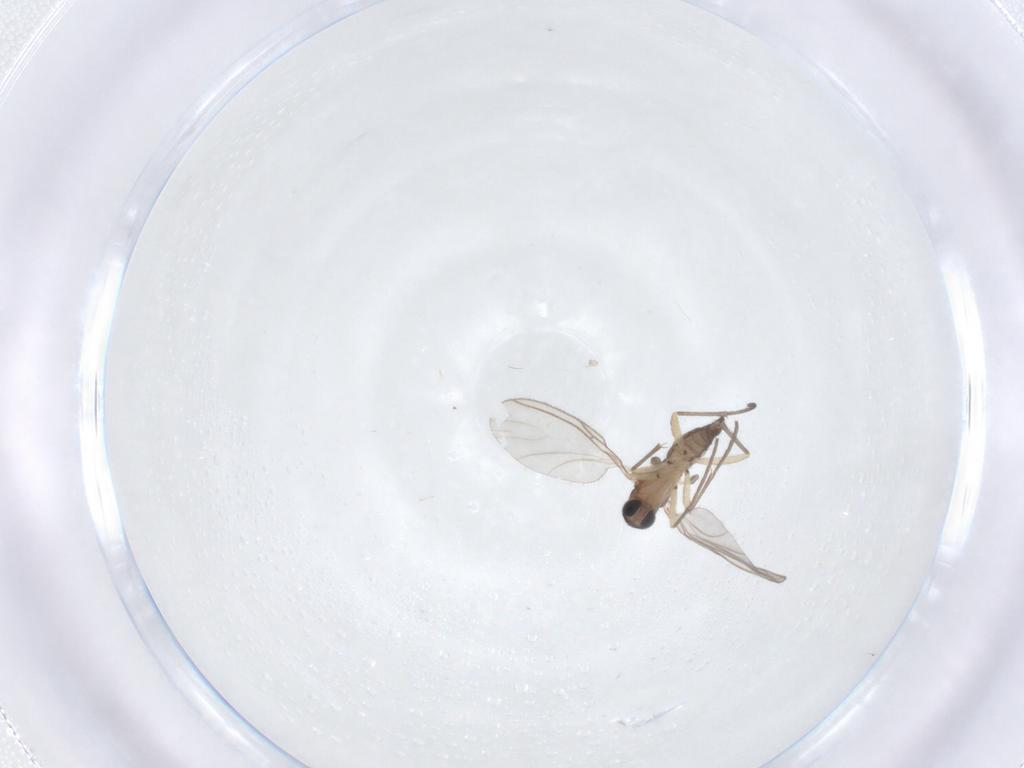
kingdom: Animalia
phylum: Arthropoda
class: Insecta
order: Diptera
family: Sciaridae
